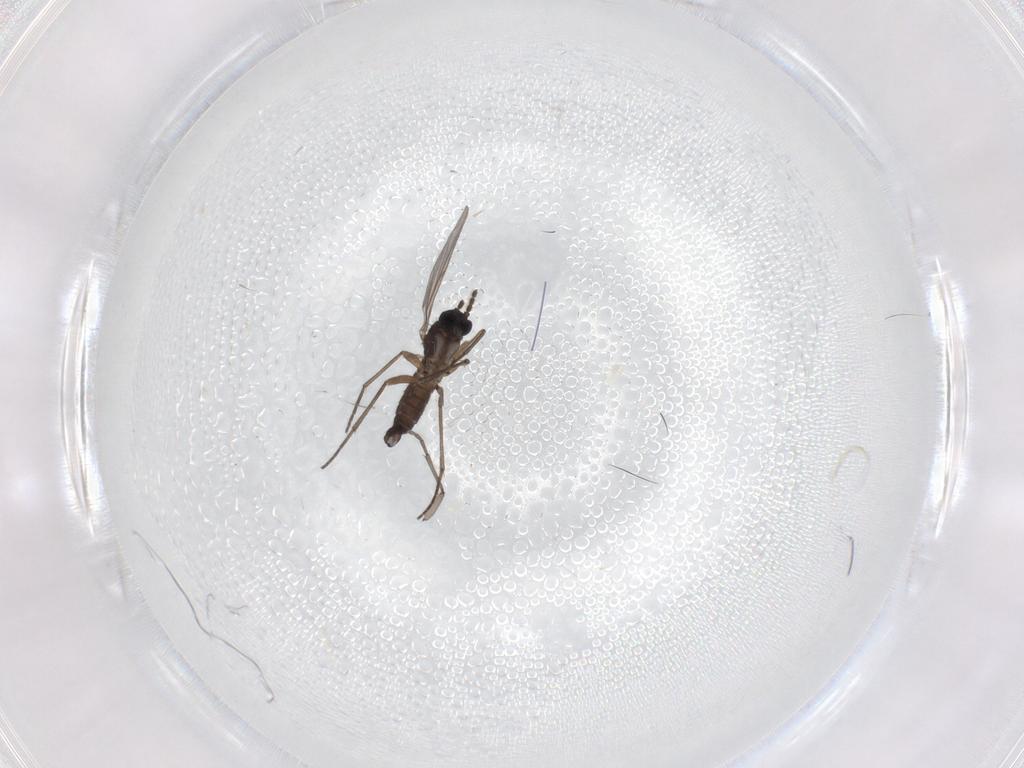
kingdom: Animalia
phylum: Arthropoda
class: Insecta
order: Diptera
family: Sciaridae
